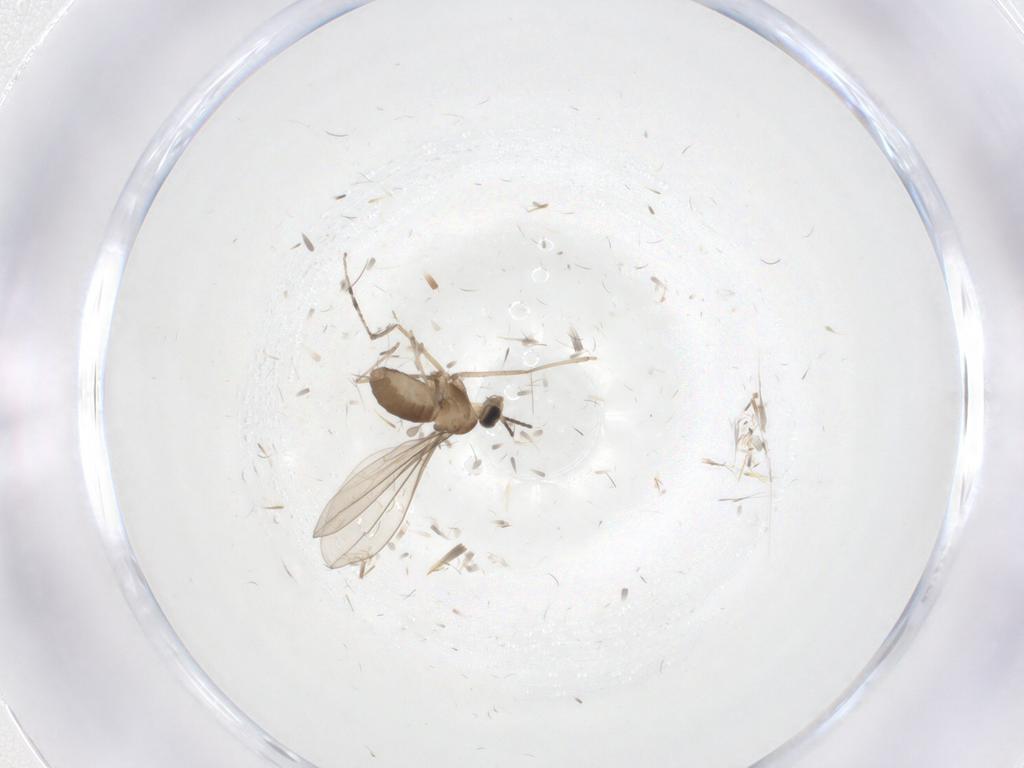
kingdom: Animalia
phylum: Arthropoda
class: Insecta
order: Diptera
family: Cecidomyiidae
